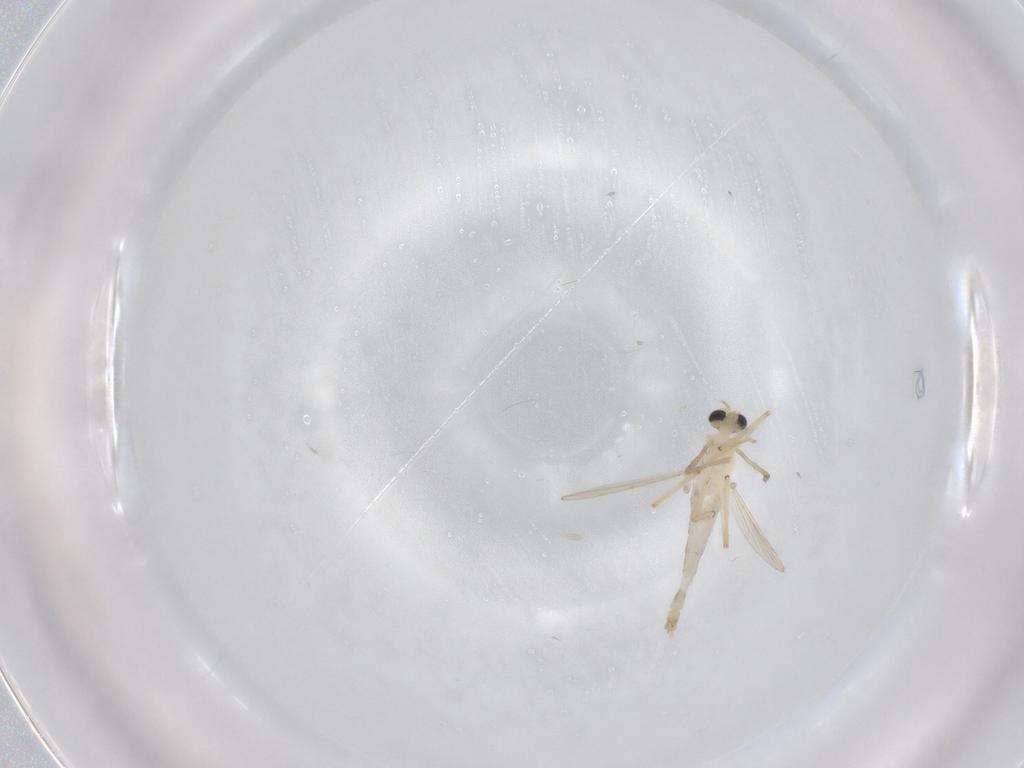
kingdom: Animalia
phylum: Arthropoda
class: Insecta
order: Diptera
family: Chironomidae
